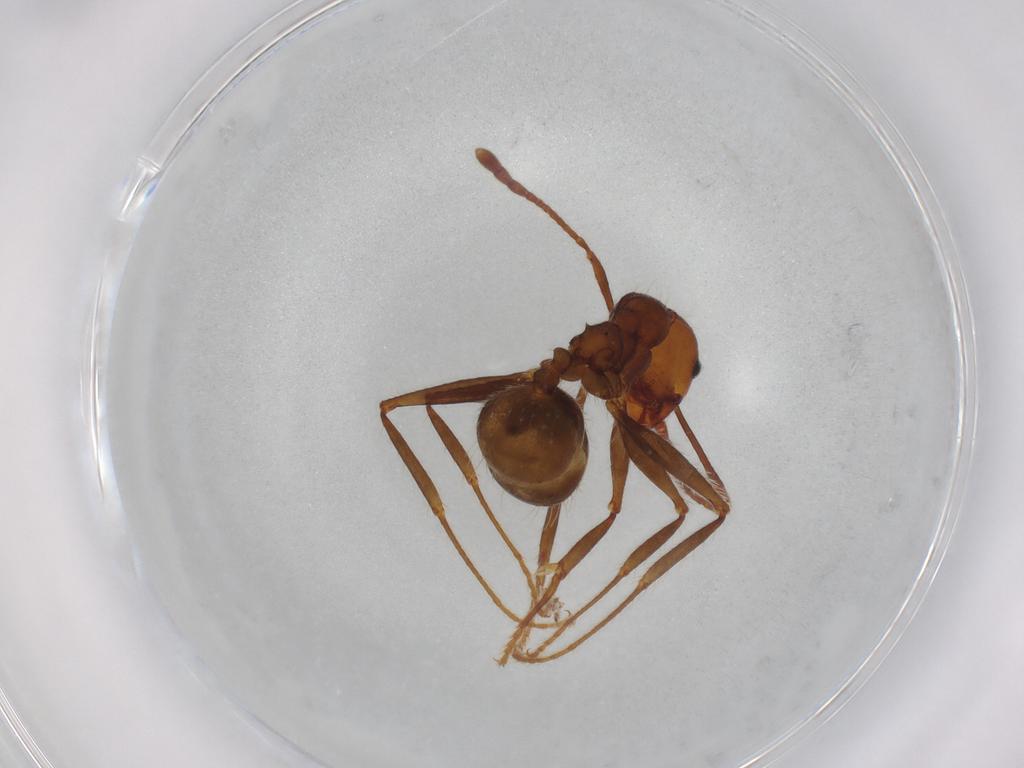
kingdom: Animalia
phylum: Arthropoda
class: Insecta
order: Hymenoptera
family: Formicidae
